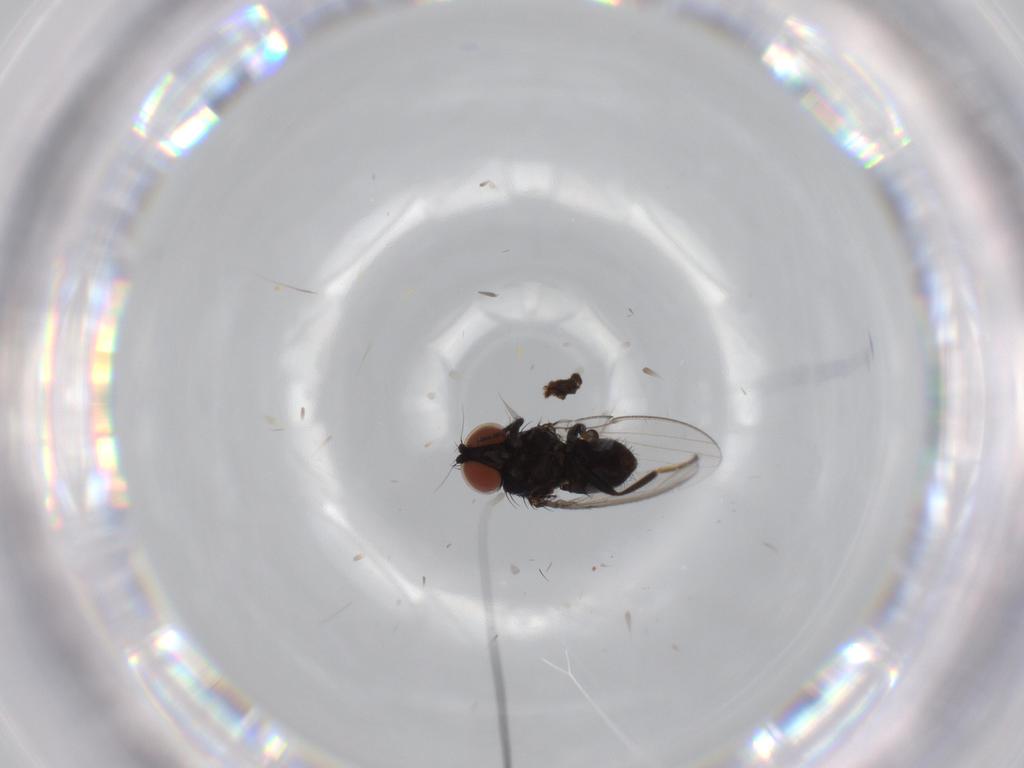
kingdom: Animalia
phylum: Arthropoda
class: Insecta
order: Diptera
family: Milichiidae
